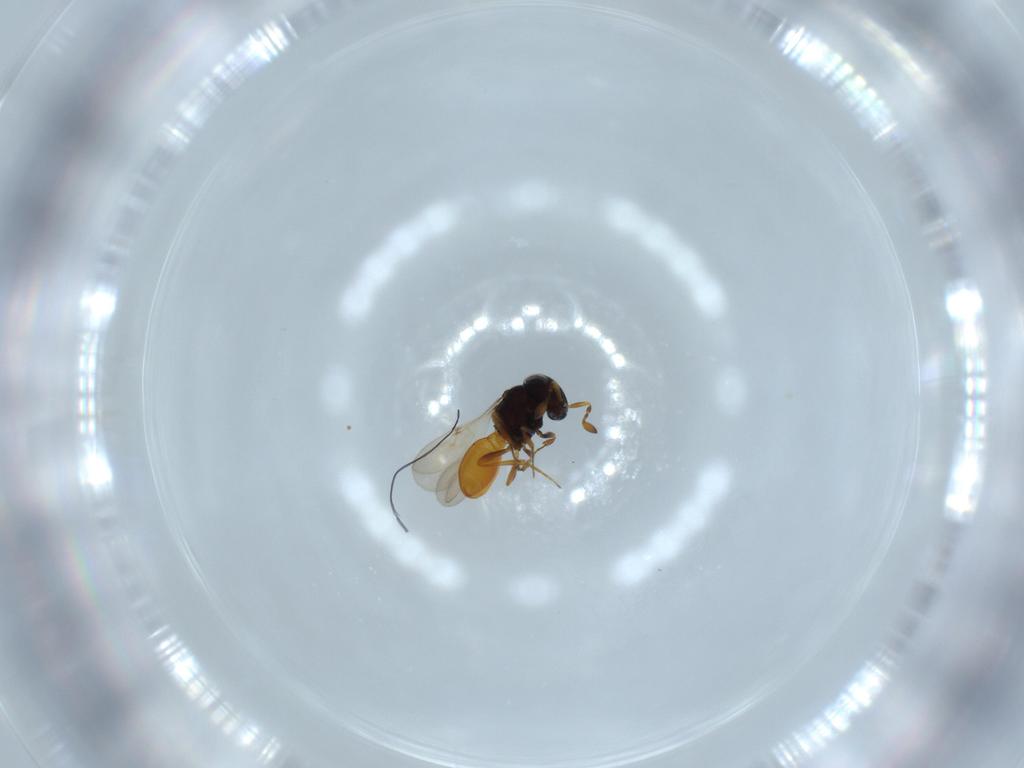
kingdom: Animalia
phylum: Arthropoda
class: Insecta
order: Hymenoptera
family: Scelionidae
